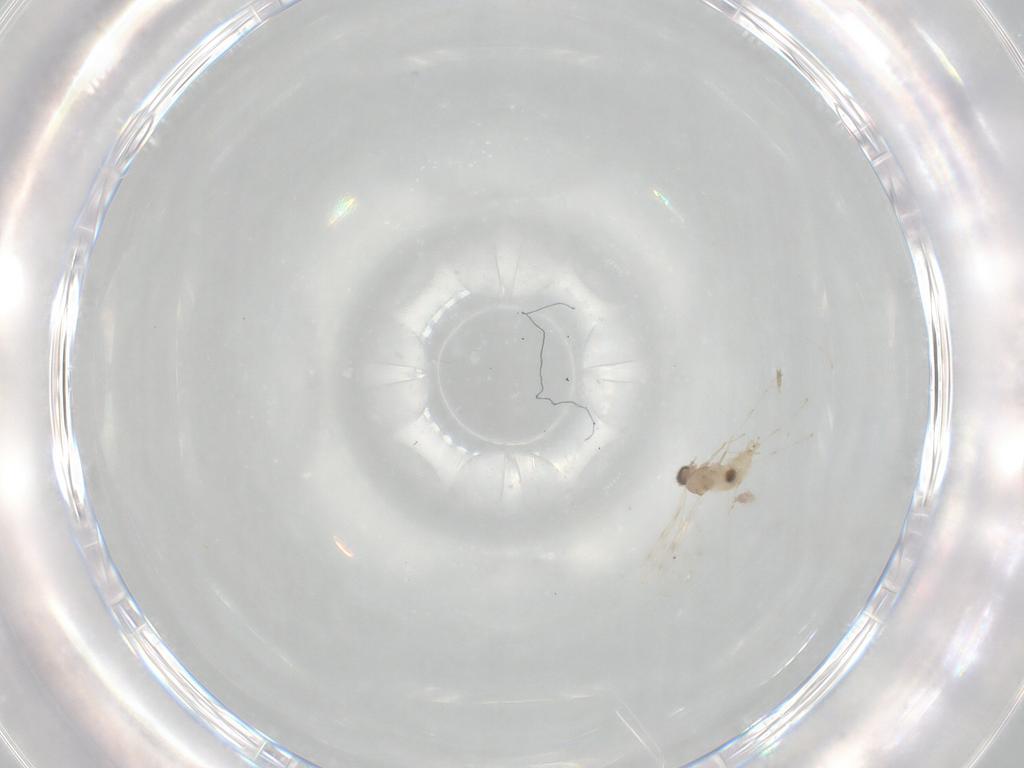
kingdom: Animalia
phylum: Arthropoda
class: Insecta
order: Diptera
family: Cecidomyiidae
